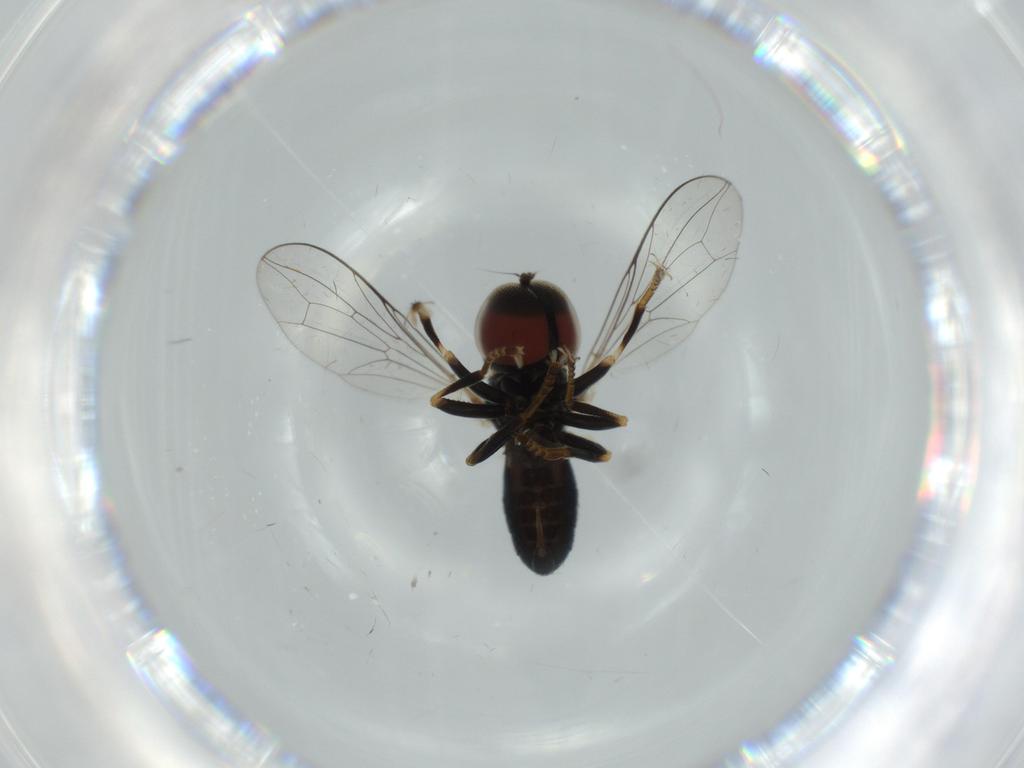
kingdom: Animalia
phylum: Arthropoda
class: Insecta
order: Diptera
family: Pipunculidae
